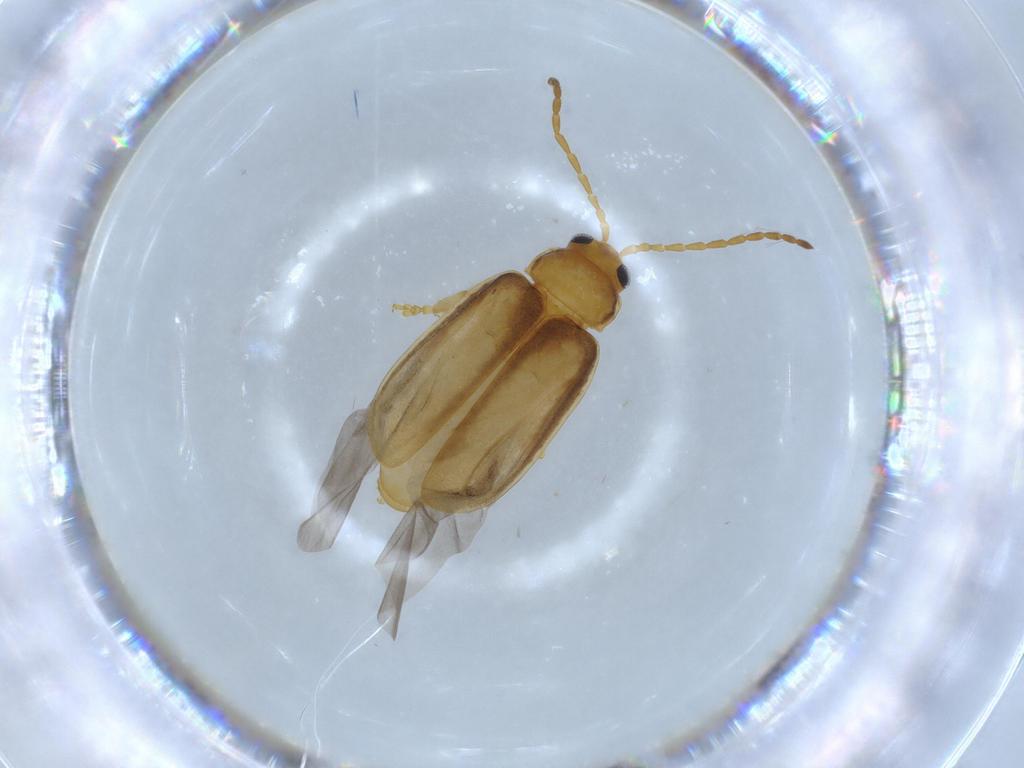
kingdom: Animalia
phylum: Arthropoda
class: Insecta
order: Coleoptera
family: Chrysomelidae
